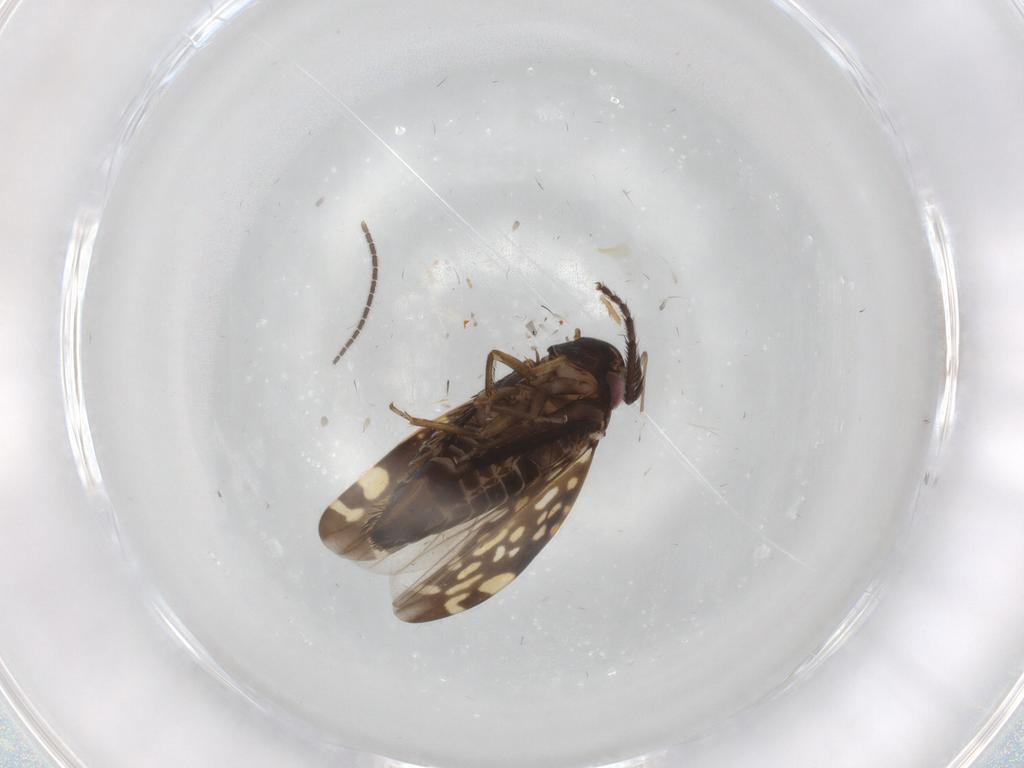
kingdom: Animalia
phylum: Arthropoda
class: Insecta
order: Hemiptera
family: Cicadellidae
